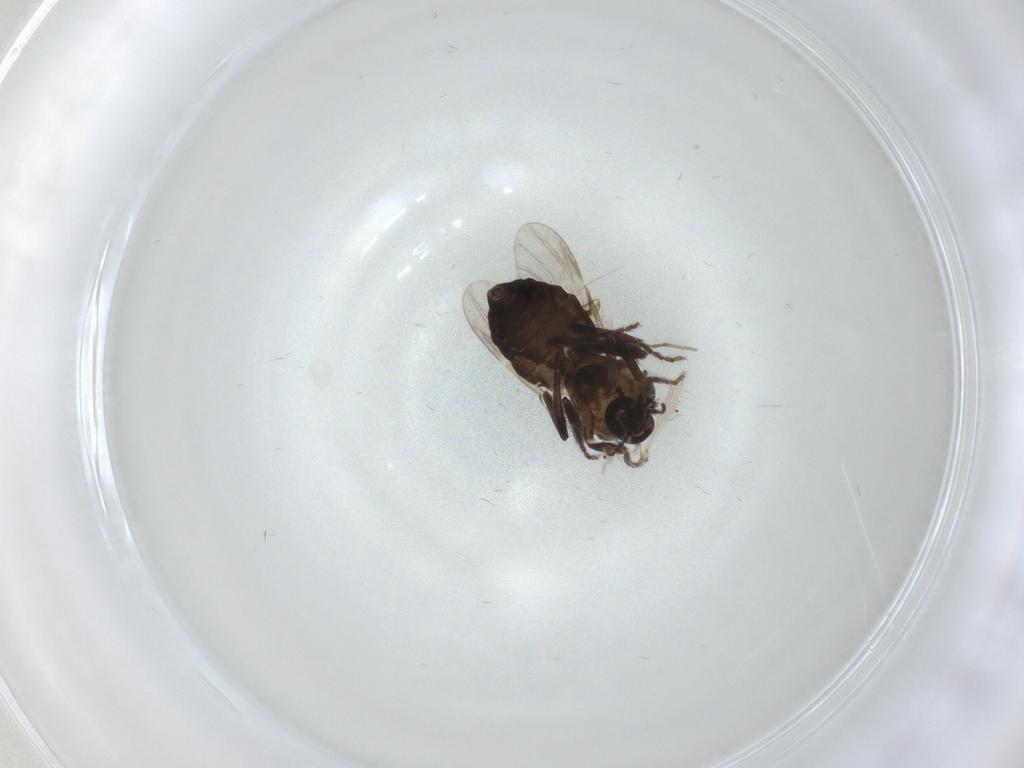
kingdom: Animalia
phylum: Arthropoda
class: Insecta
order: Diptera
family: Ceratopogonidae
